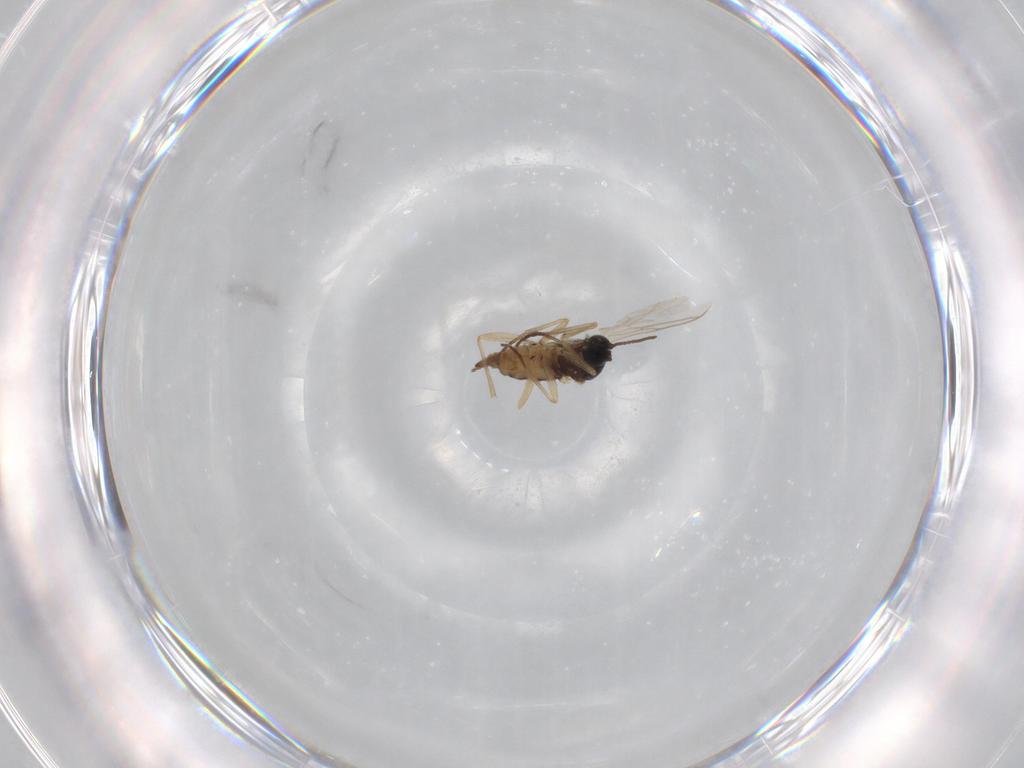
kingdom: Animalia
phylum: Arthropoda
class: Insecta
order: Diptera
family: Sciaridae
